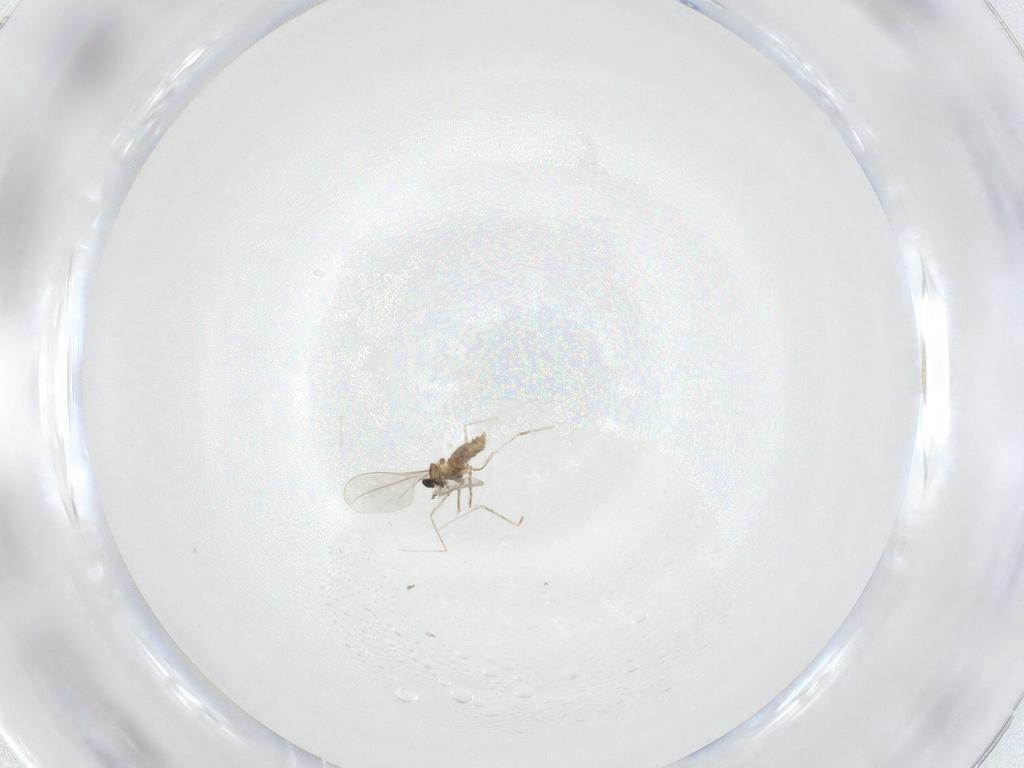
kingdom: Animalia
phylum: Arthropoda
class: Insecta
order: Diptera
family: Cecidomyiidae
